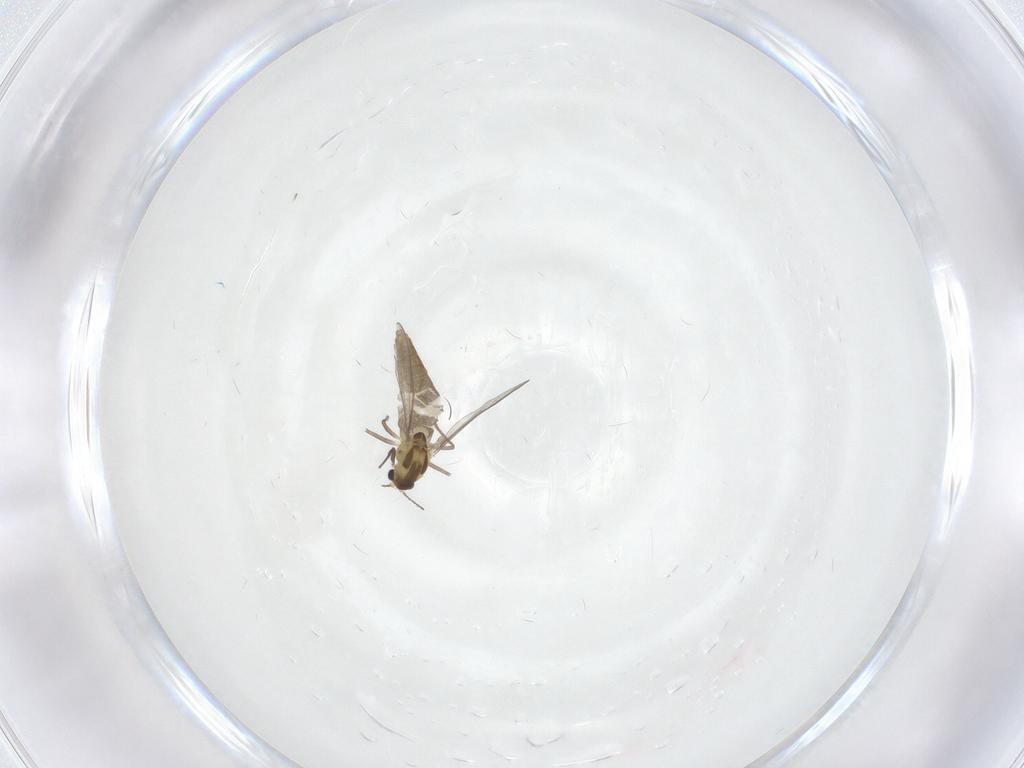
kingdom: Animalia
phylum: Arthropoda
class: Insecta
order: Diptera
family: Chironomidae
